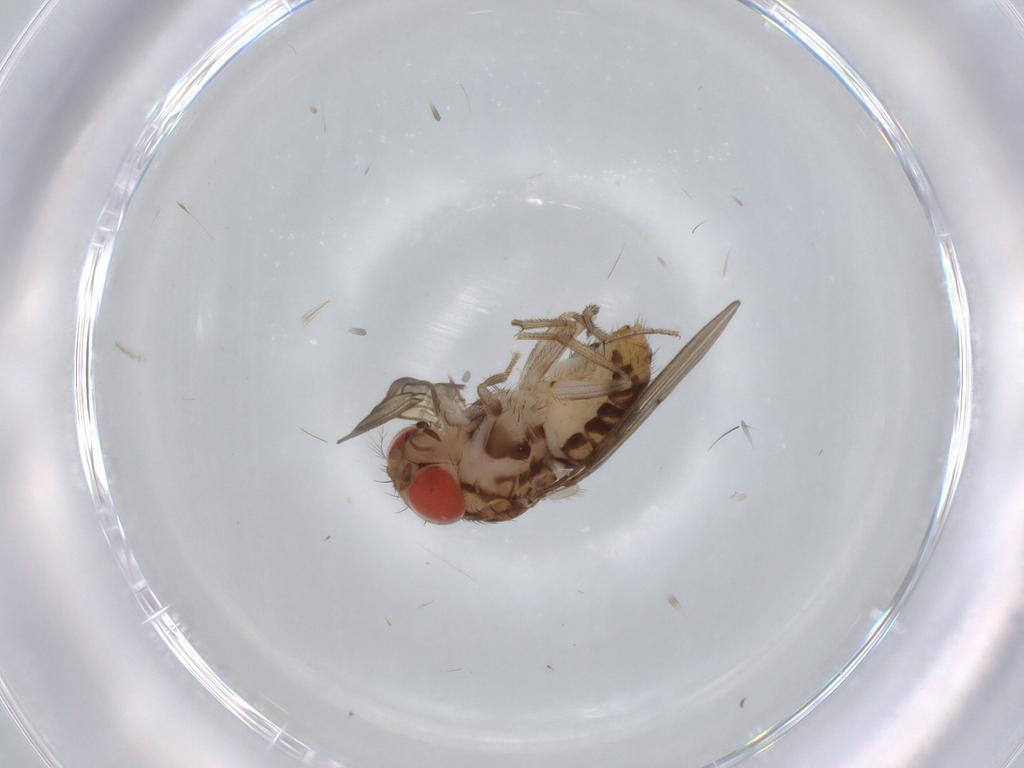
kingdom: Animalia
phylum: Arthropoda
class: Insecta
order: Diptera
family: Drosophilidae
